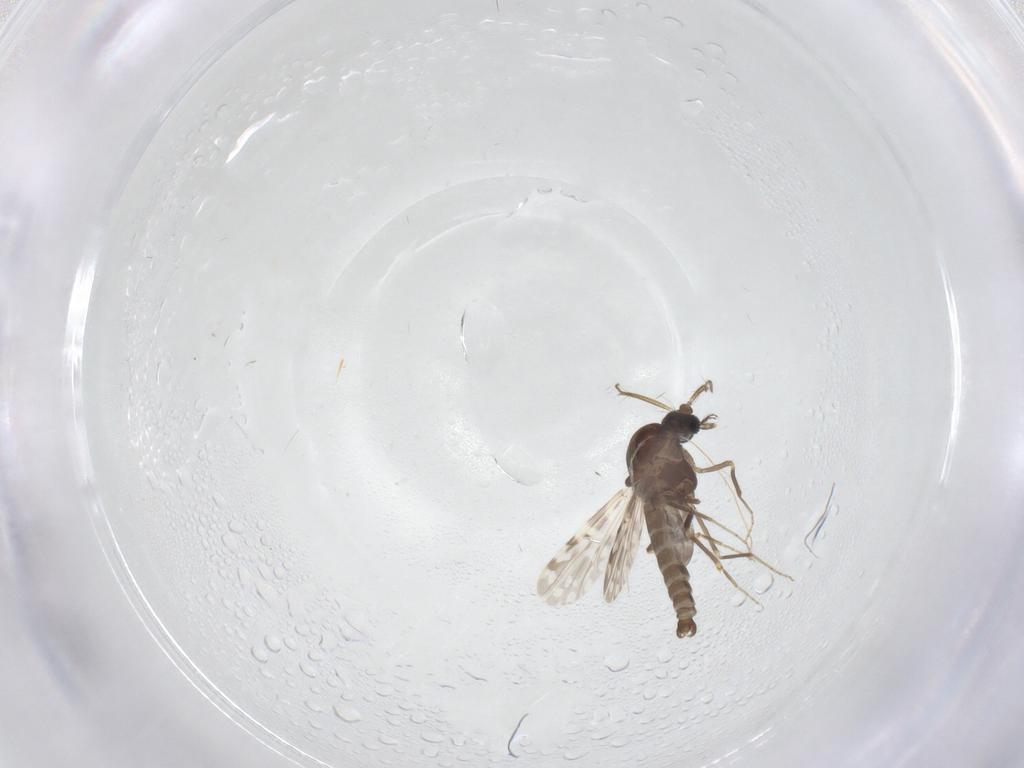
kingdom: Animalia
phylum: Arthropoda
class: Insecta
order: Diptera
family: Ceratopogonidae
